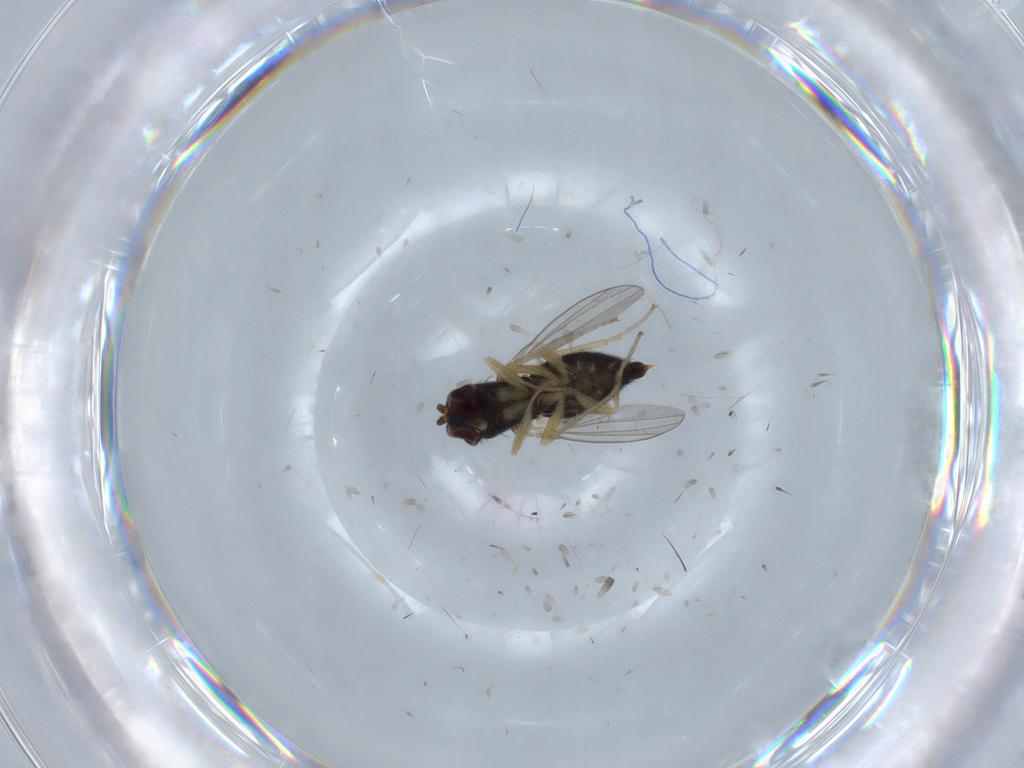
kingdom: Animalia
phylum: Arthropoda
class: Insecta
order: Diptera
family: Dolichopodidae
